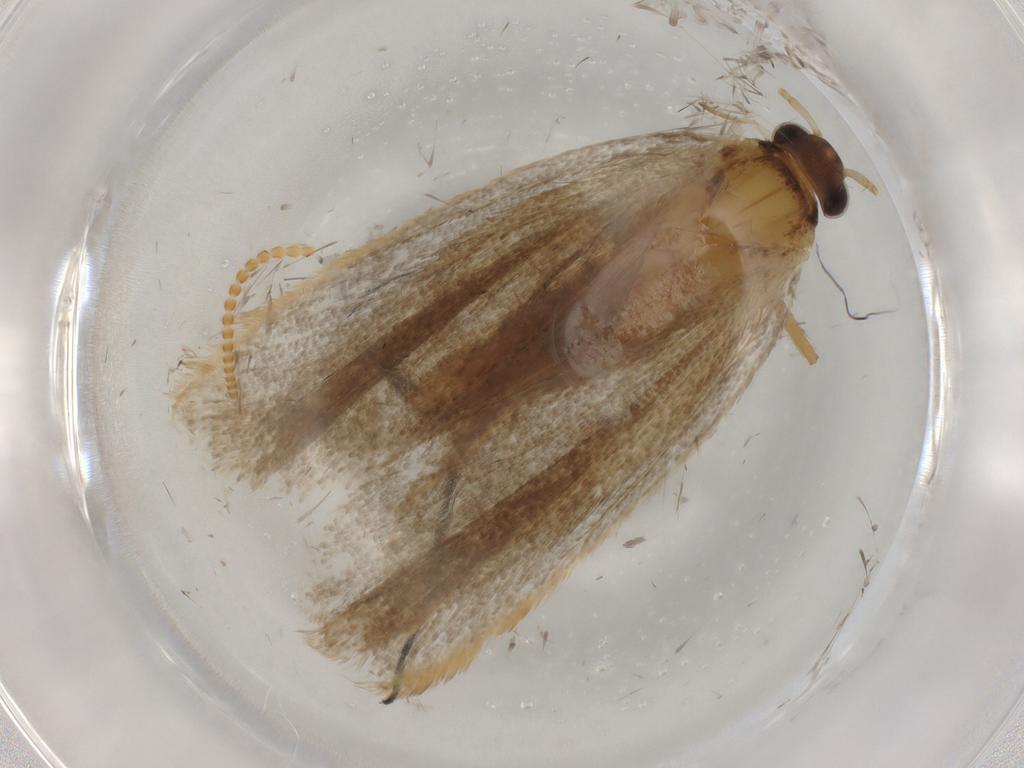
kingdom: Animalia
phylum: Arthropoda
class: Insecta
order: Lepidoptera
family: Lecithoceridae
